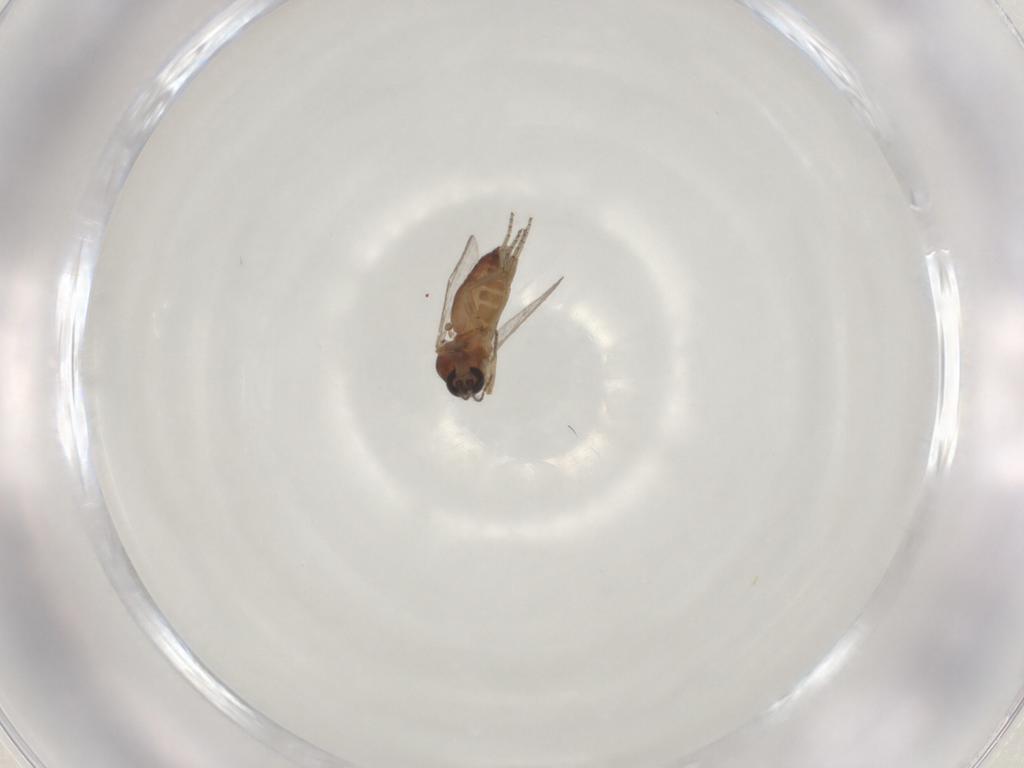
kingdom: Animalia
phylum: Arthropoda
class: Insecta
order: Diptera
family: Ceratopogonidae
